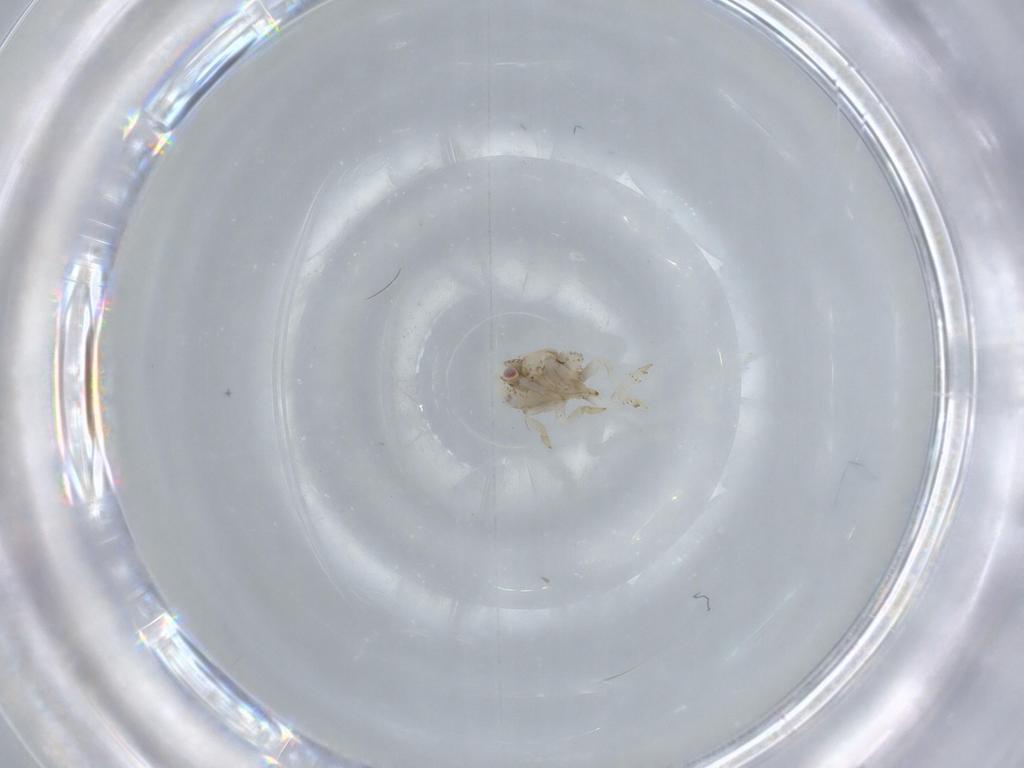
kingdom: Animalia
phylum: Arthropoda
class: Insecta
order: Hemiptera
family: Acanaloniidae
